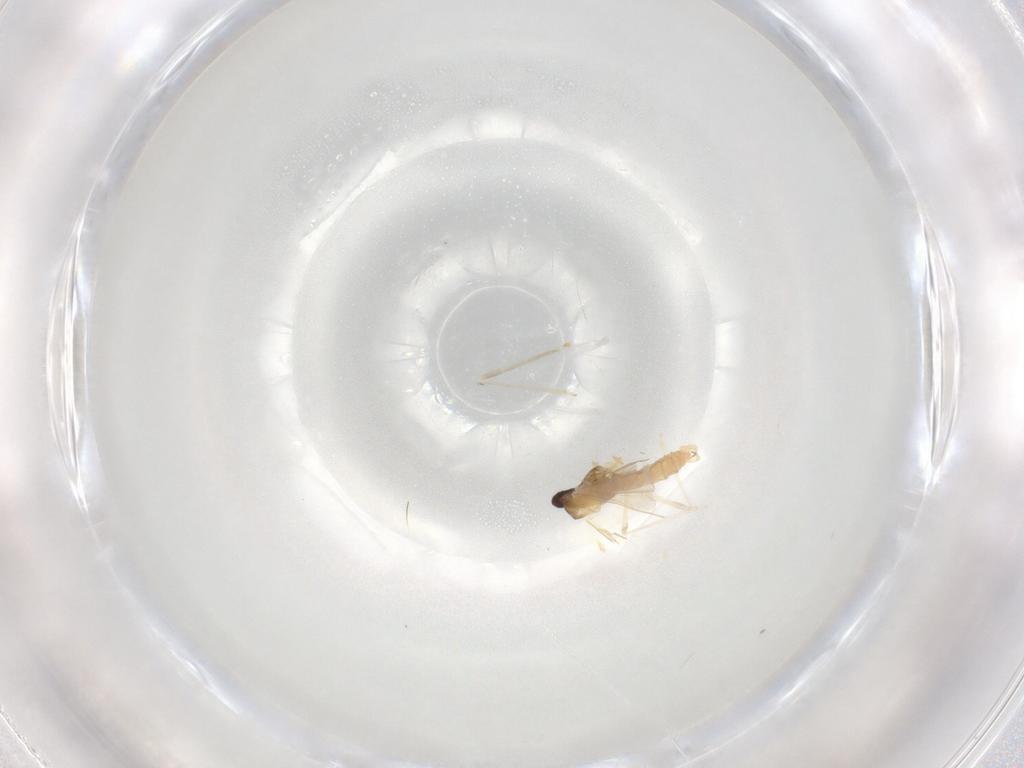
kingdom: Animalia
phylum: Arthropoda
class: Insecta
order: Diptera
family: Cecidomyiidae
